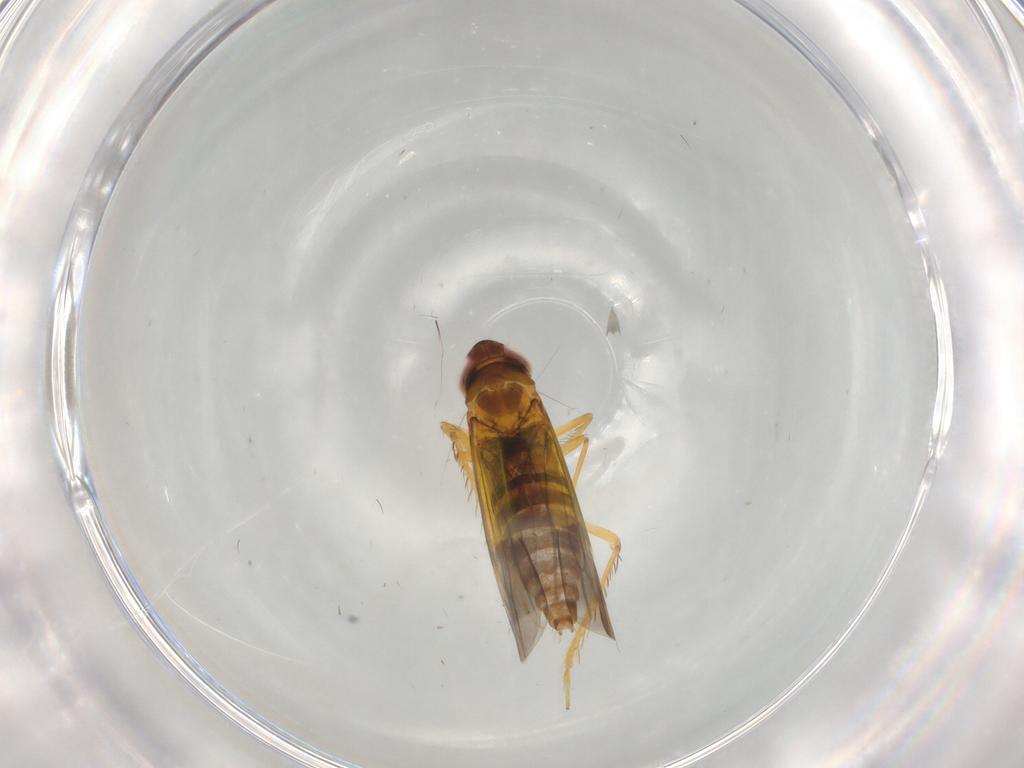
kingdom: Animalia
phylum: Arthropoda
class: Insecta
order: Hemiptera
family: Cicadellidae
